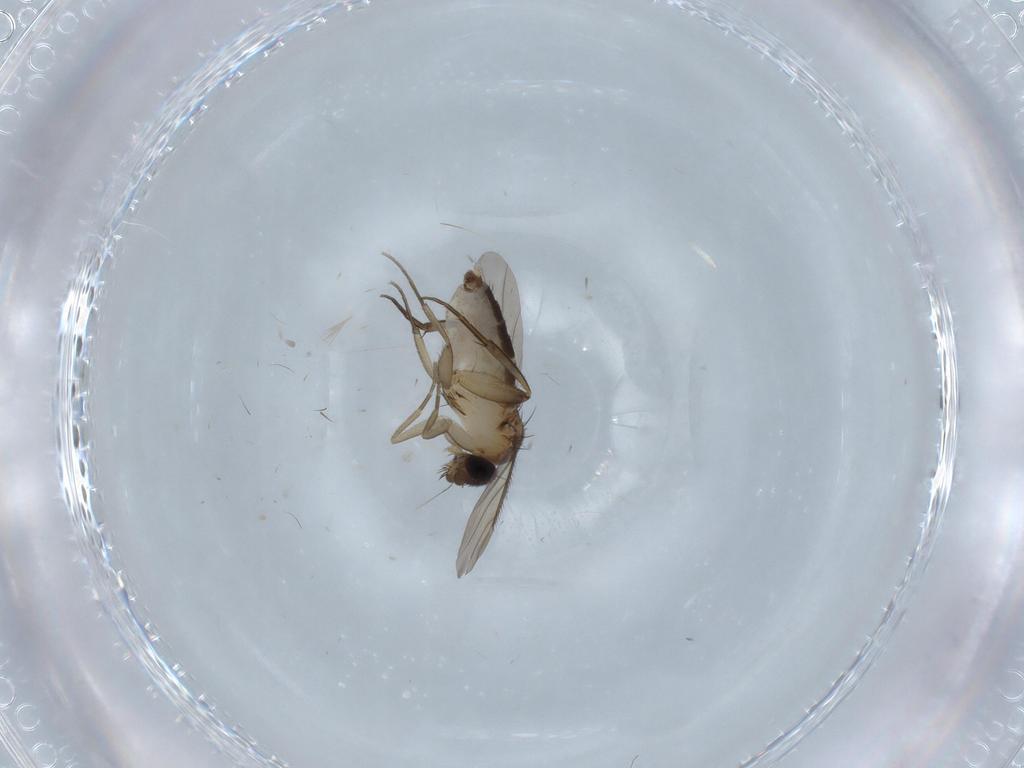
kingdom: Animalia
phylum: Arthropoda
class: Insecta
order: Diptera
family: Phoridae
